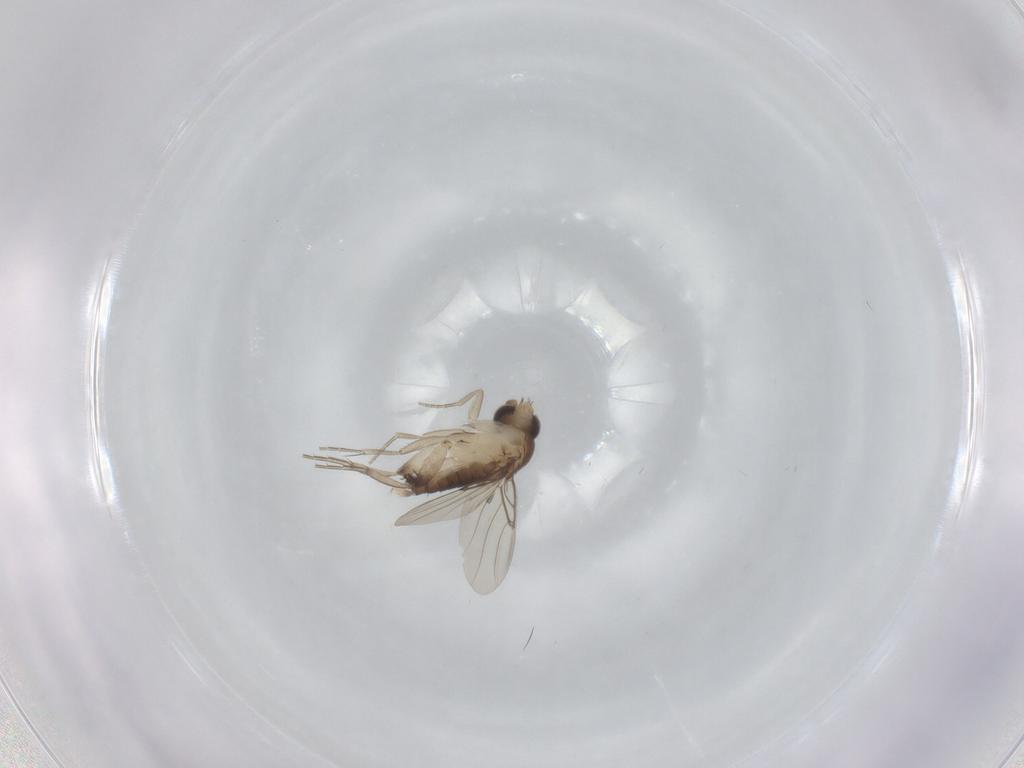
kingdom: Animalia
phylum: Arthropoda
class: Insecta
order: Diptera
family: Phoridae
